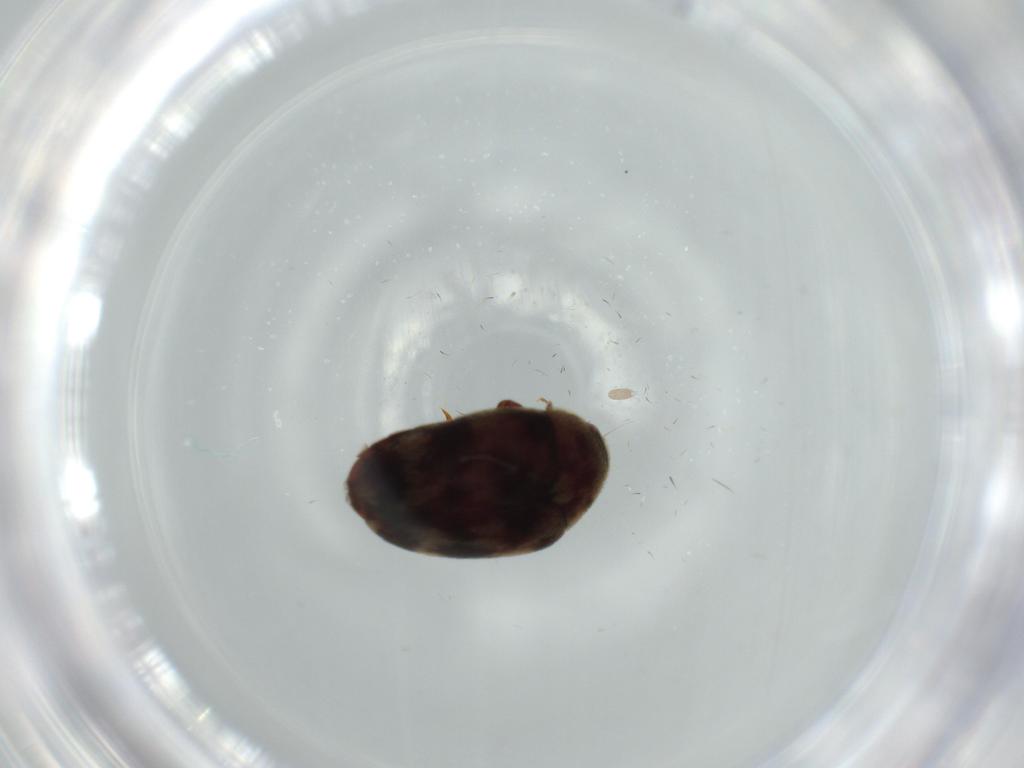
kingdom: Animalia
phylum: Arthropoda
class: Insecta
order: Coleoptera
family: Dermestidae
